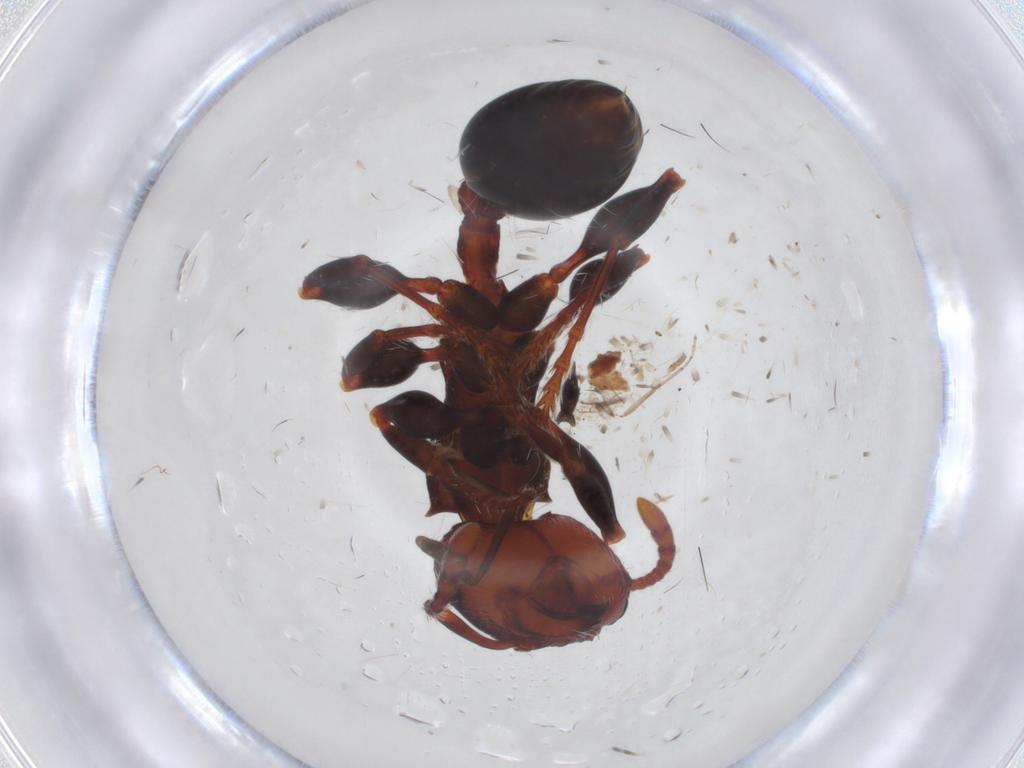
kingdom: Animalia
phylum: Arthropoda
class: Insecta
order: Hymenoptera
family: Formicidae
